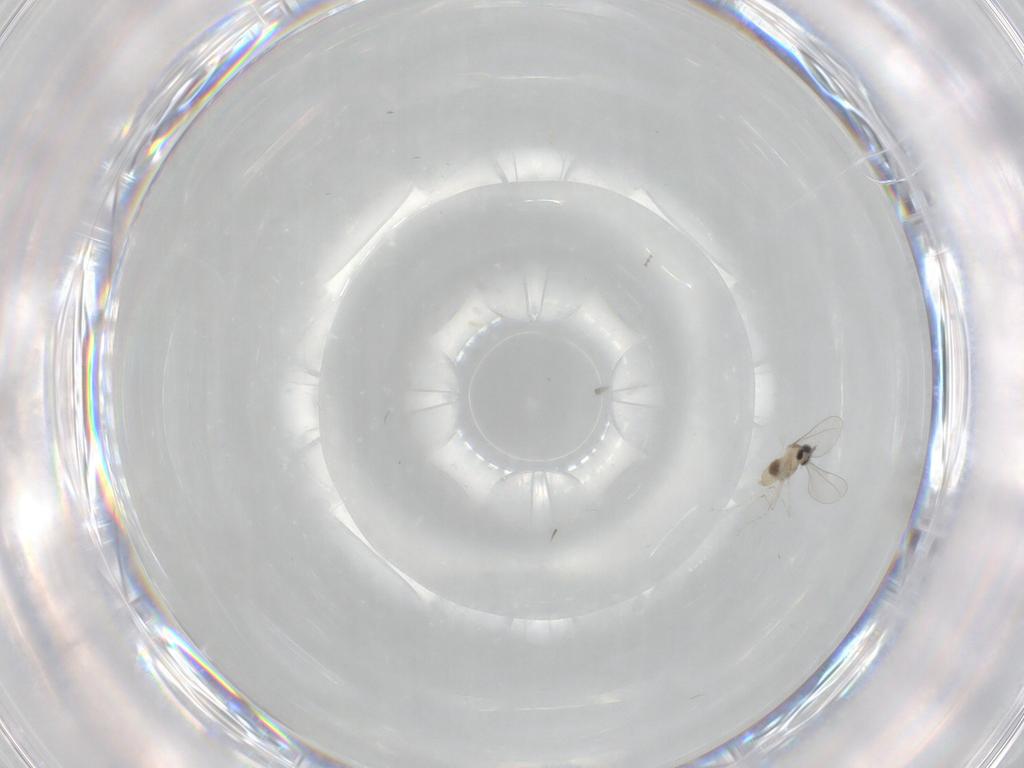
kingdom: Animalia
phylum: Arthropoda
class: Insecta
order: Diptera
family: Cecidomyiidae
